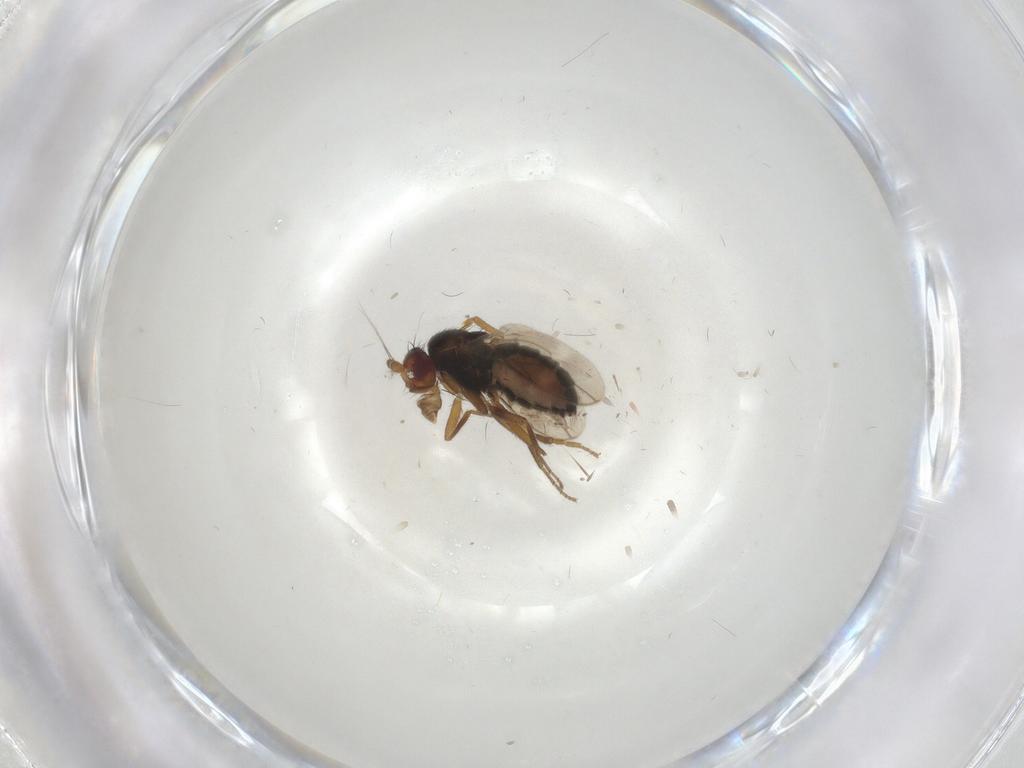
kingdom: Animalia
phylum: Arthropoda
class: Insecta
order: Diptera
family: Sphaeroceridae
